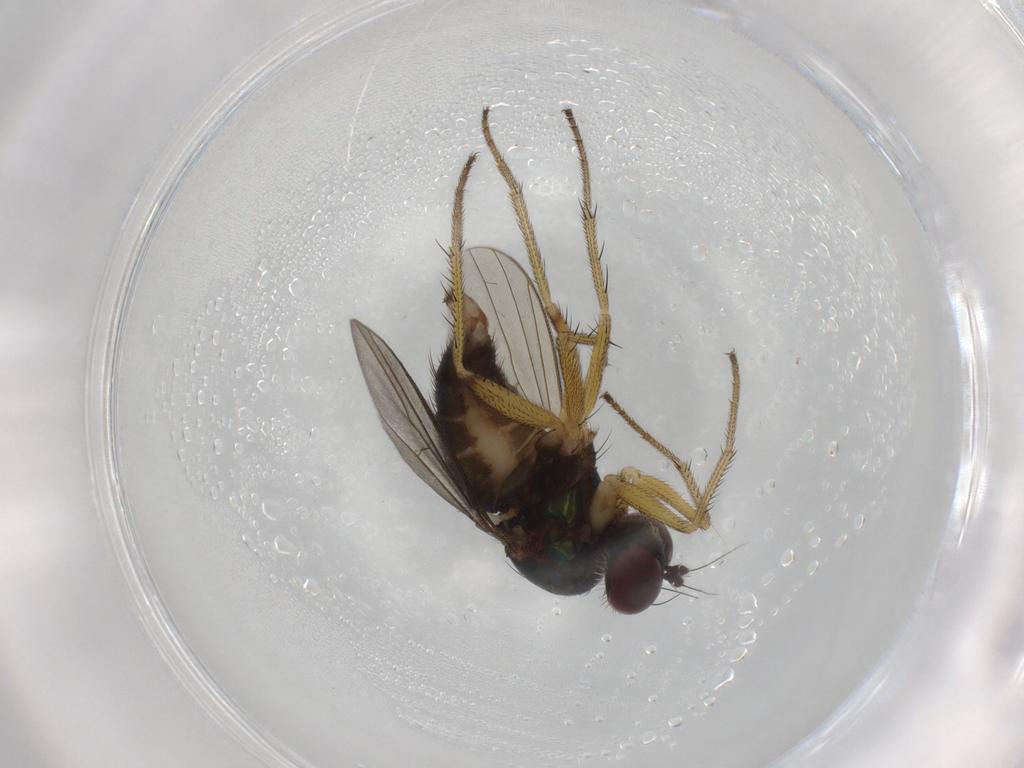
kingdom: Animalia
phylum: Arthropoda
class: Insecta
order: Diptera
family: Dolichopodidae
